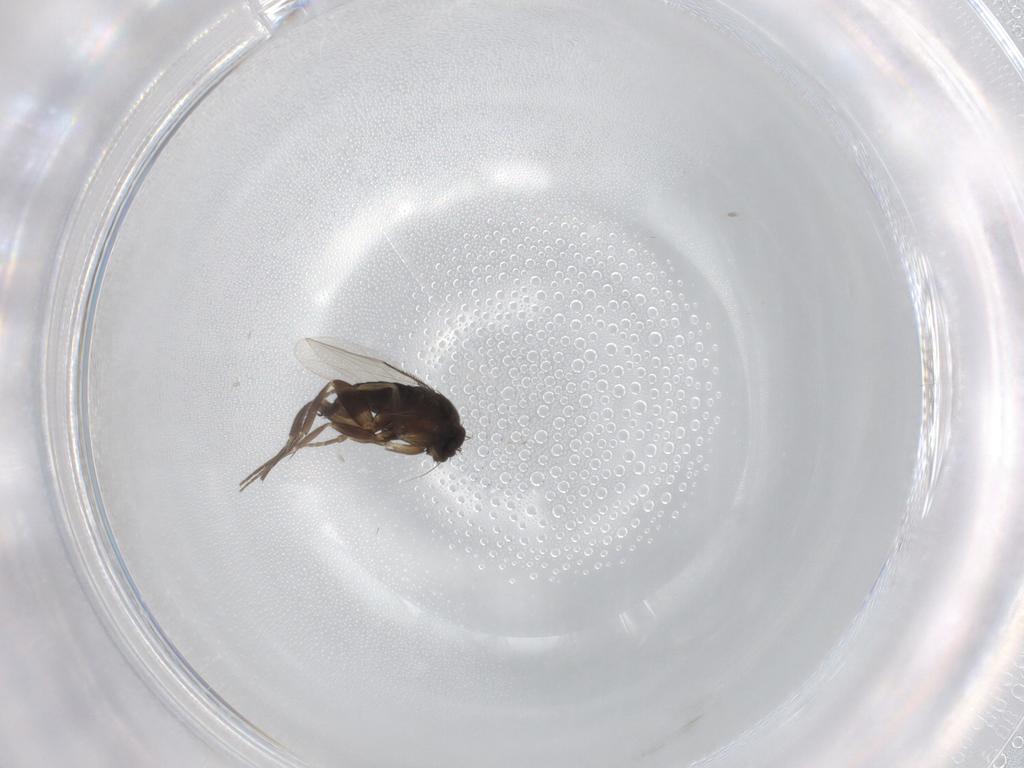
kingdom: Animalia
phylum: Arthropoda
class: Insecta
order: Diptera
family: Phoridae
